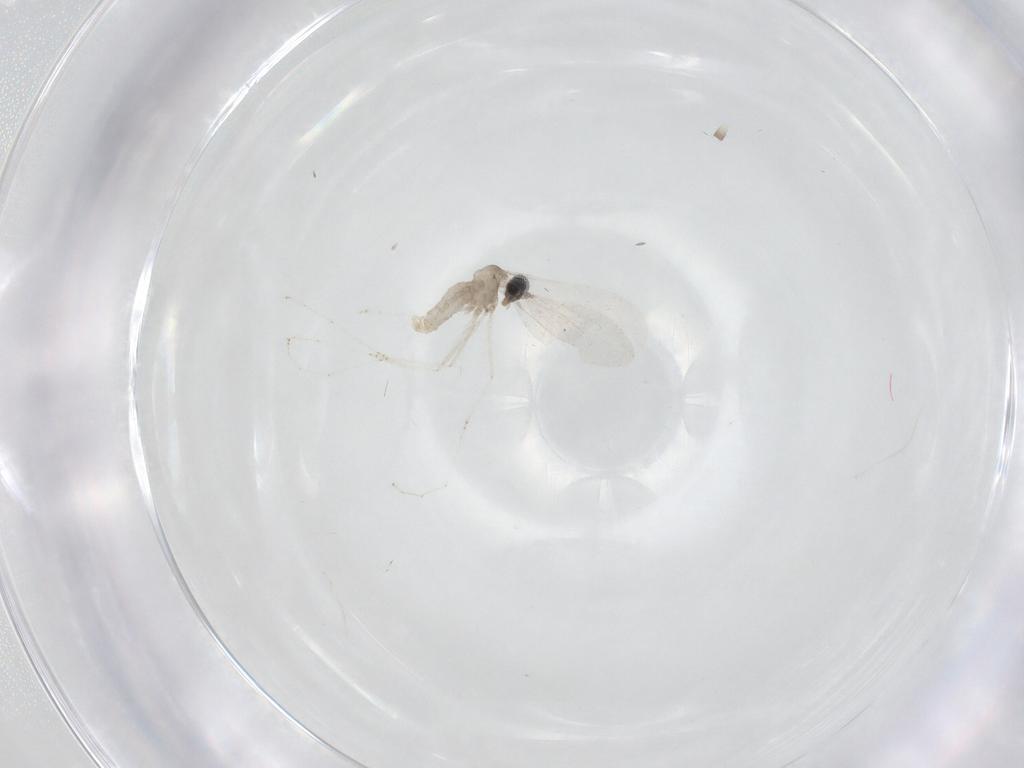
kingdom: Animalia
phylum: Arthropoda
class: Insecta
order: Diptera
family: Cecidomyiidae
